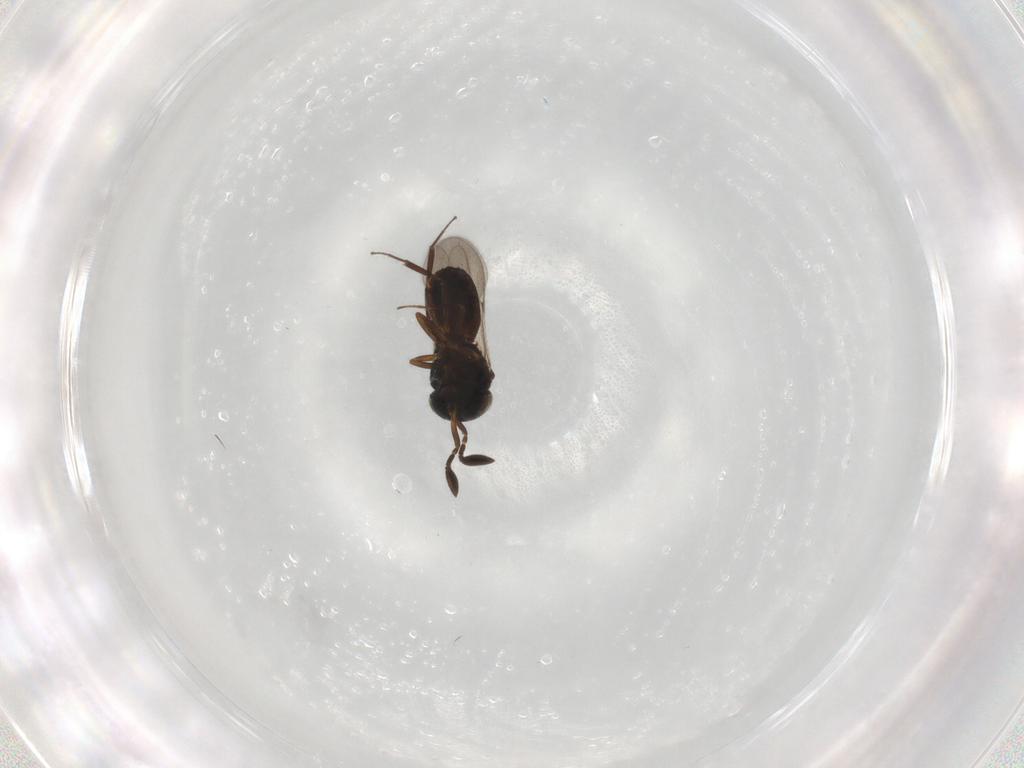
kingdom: Animalia
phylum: Arthropoda
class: Insecta
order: Hymenoptera
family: Scelionidae
